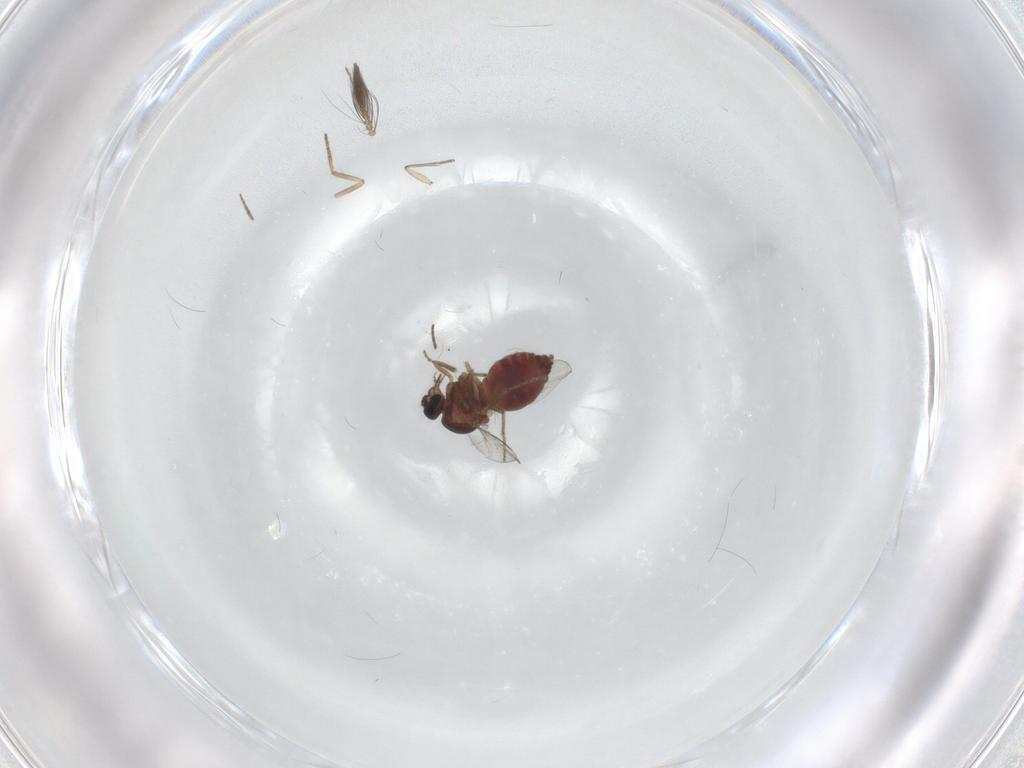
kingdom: Animalia
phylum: Arthropoda
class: Insecta
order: Diptera
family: Sciaridae
